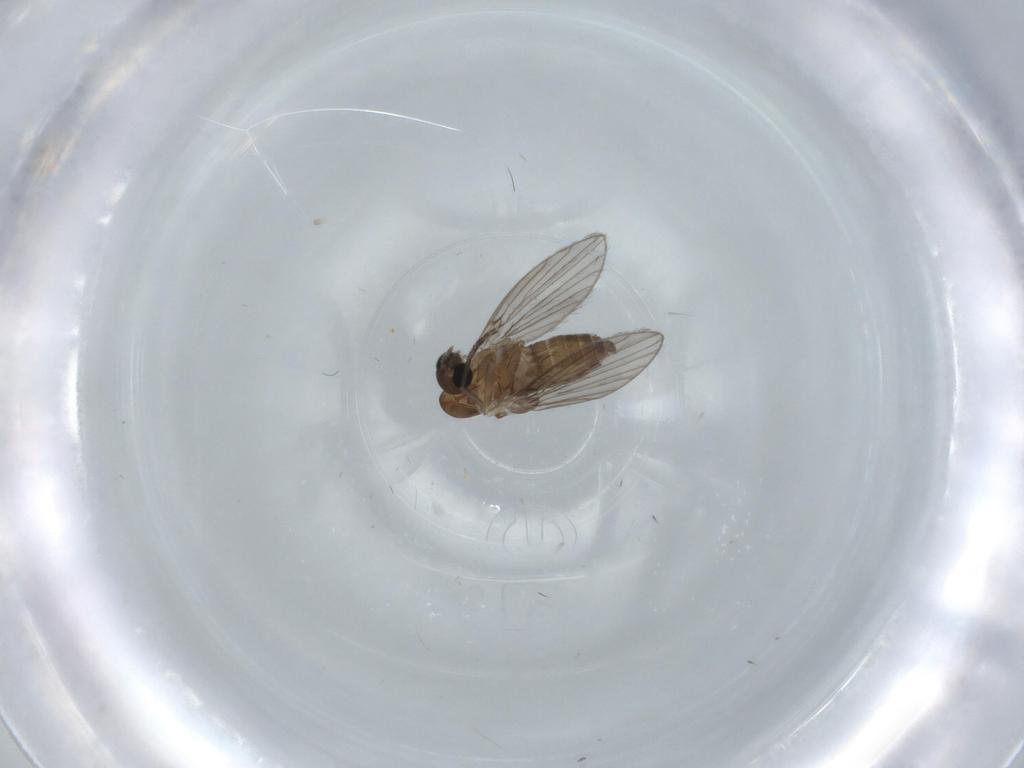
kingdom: Animalia
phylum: Arthropoda
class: Insecta
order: Diptera
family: Psychodidae
